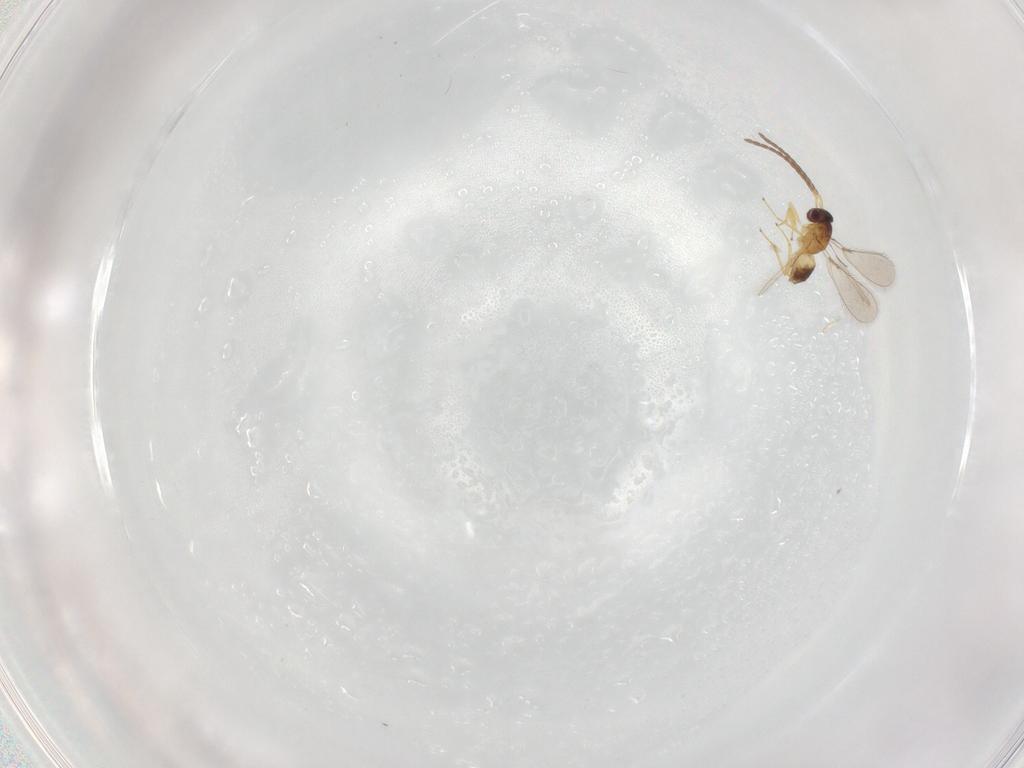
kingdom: Animalia
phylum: Arthropoda
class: Insecta
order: Hymenoptera
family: Mymaridae
